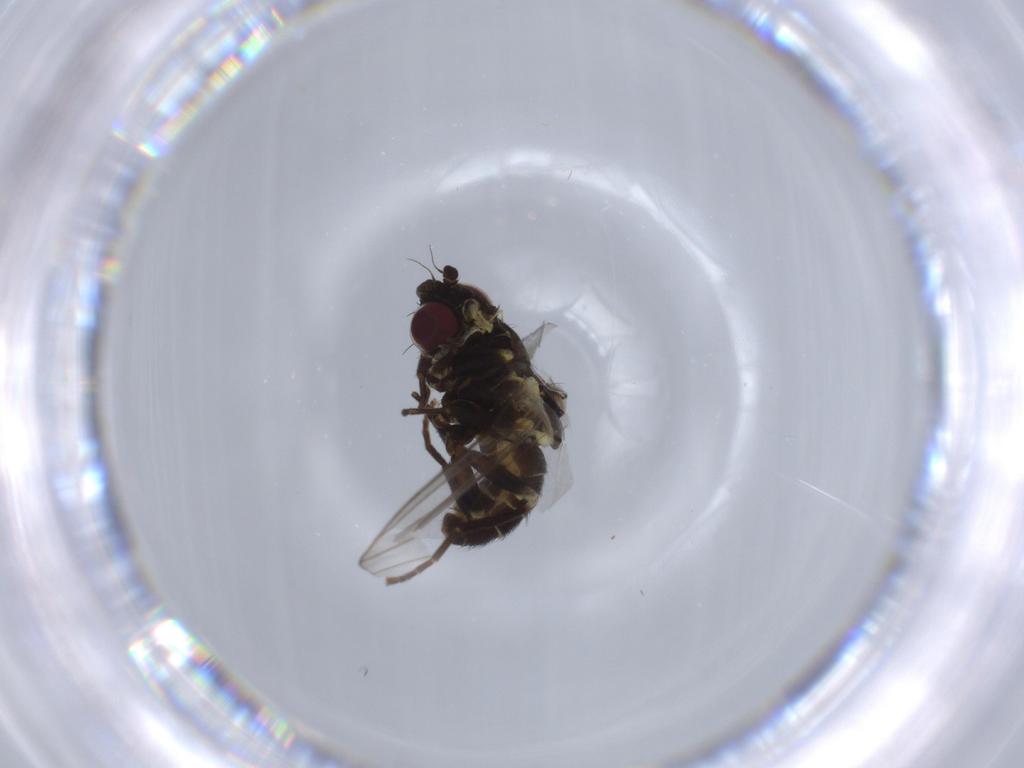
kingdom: Animalia
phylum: Arthropoda
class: Insecta
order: Diptera
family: Agromyzidae
